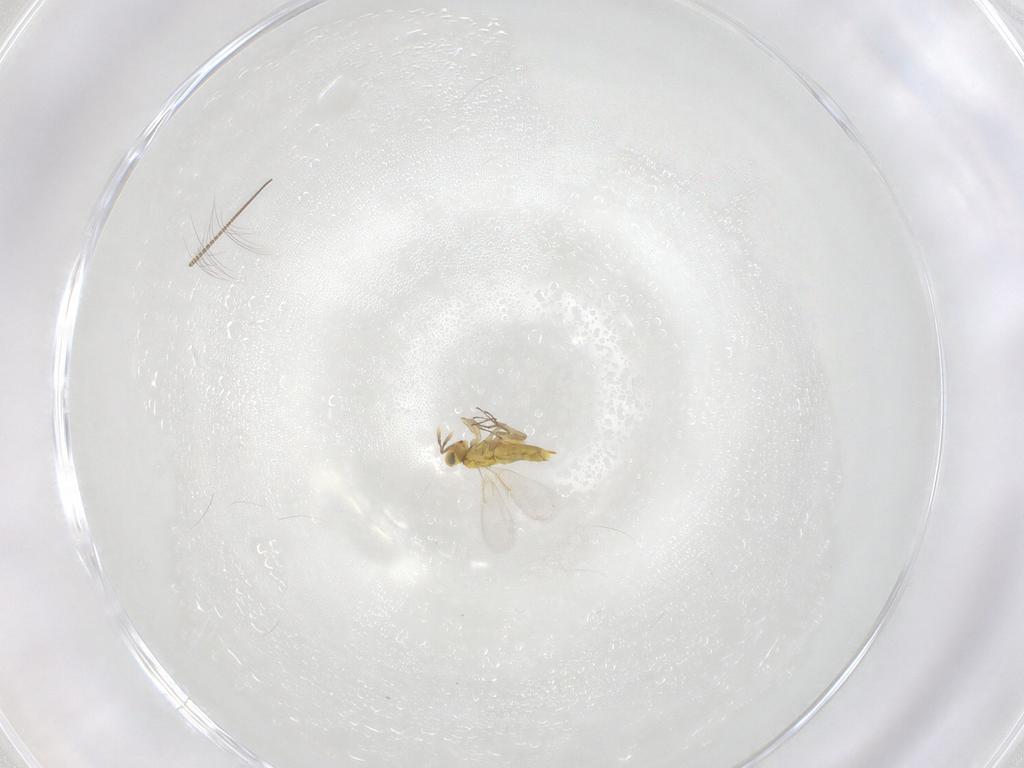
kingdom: Animalia
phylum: Arthropoda
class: Insecta
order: Hymenoptera
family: Aphelinidae
